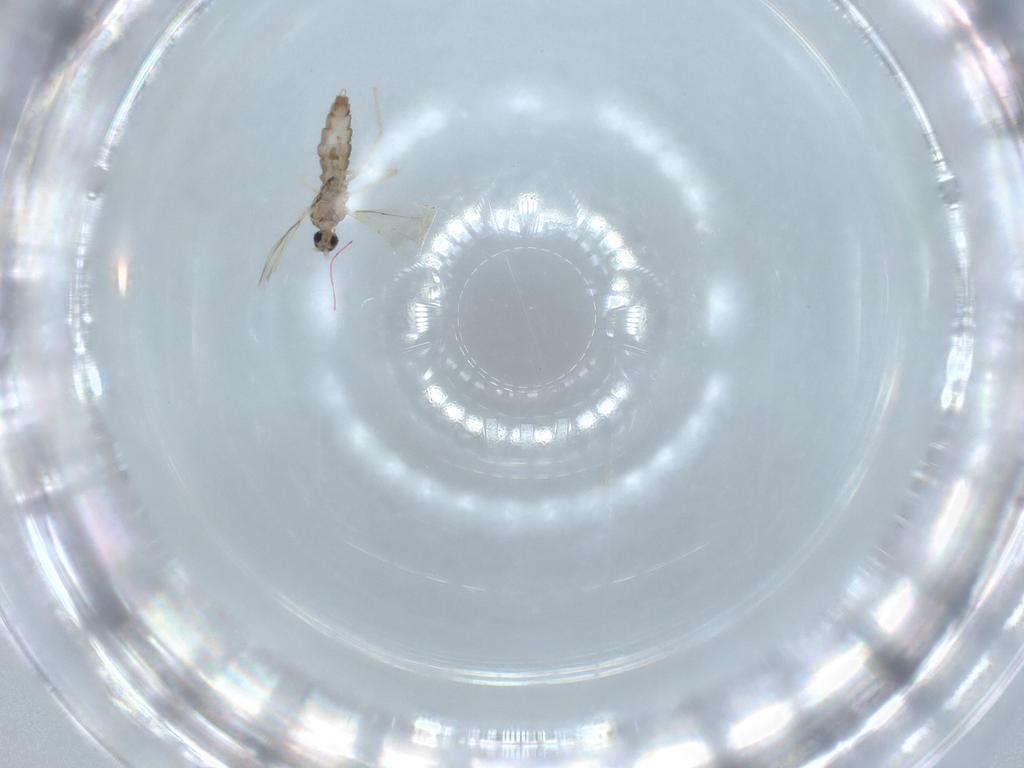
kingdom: Animalia
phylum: Arthropoda
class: Insecta
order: Diptera
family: Chironomidae
